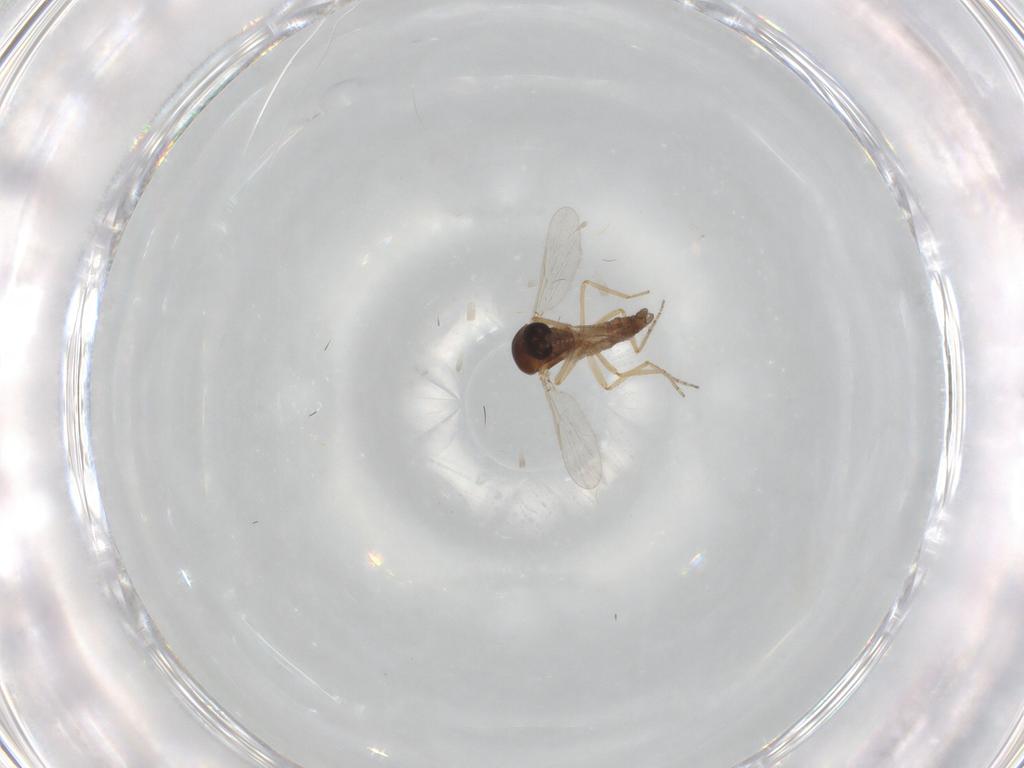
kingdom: Animalia
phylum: Arthropoda
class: Insecta
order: Diptera
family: Ceratopogonidae
